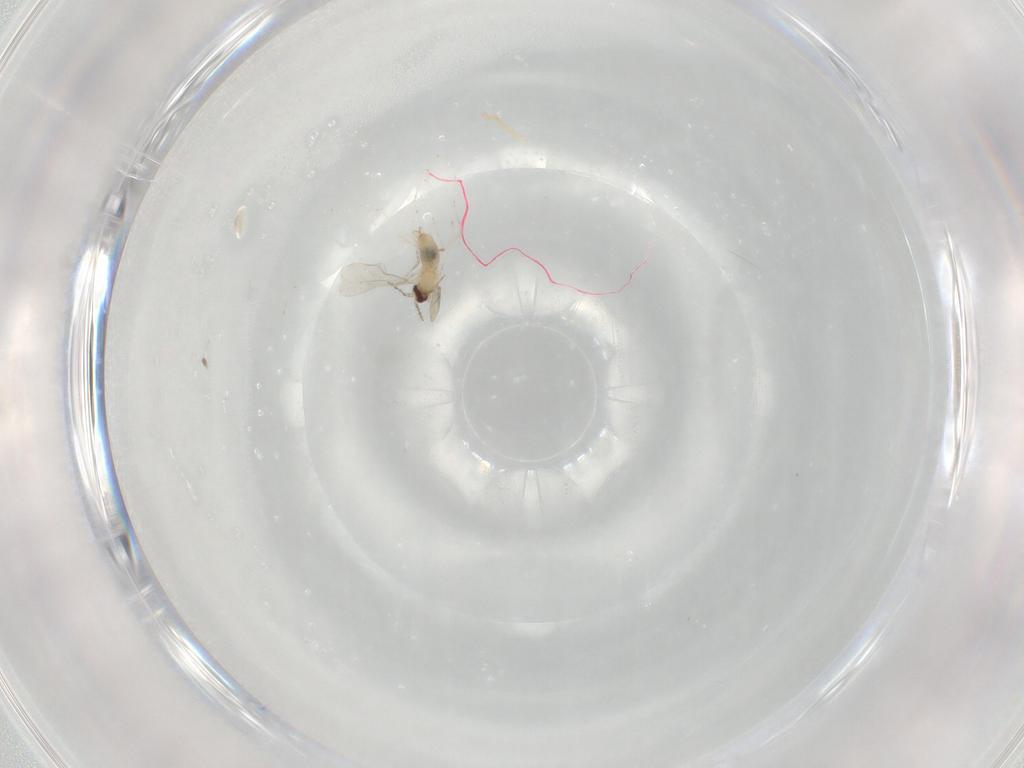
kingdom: Animalia
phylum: Arthropoda
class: Insecta
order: Diptera
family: Cecidomyiidae
